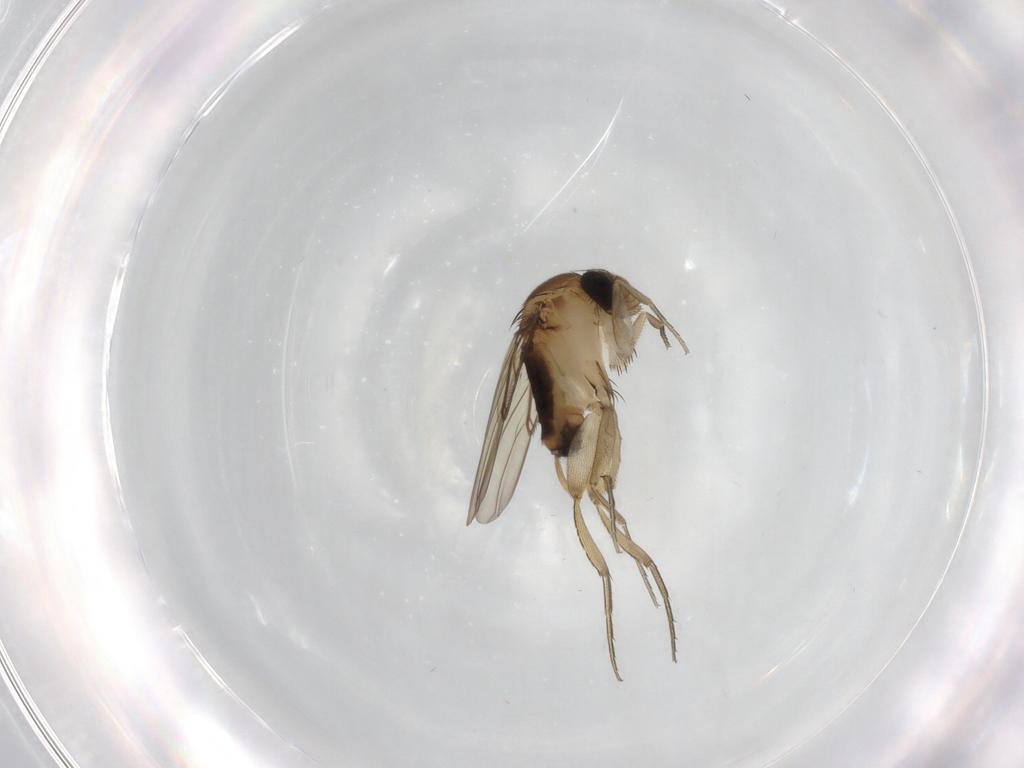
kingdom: Animalia
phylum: Arthropoda
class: Insecta
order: Diptera
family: Phoridae
